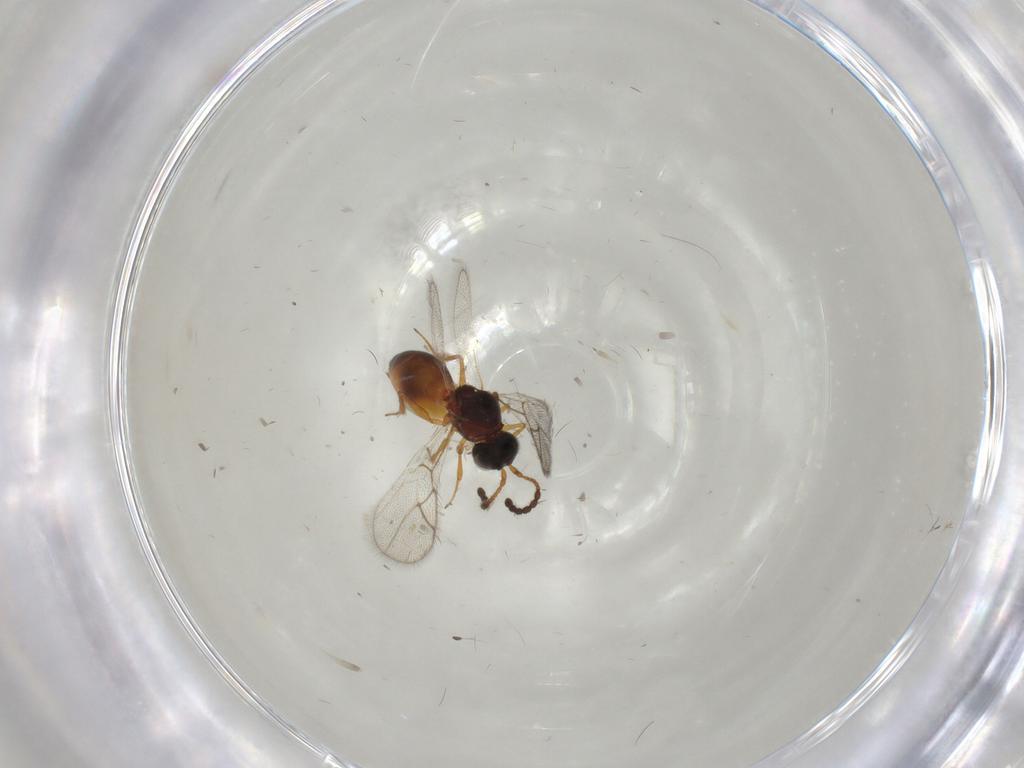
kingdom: Animalia
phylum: Arthropoda
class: Insecta
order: Hymenoptera
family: Figitidae
